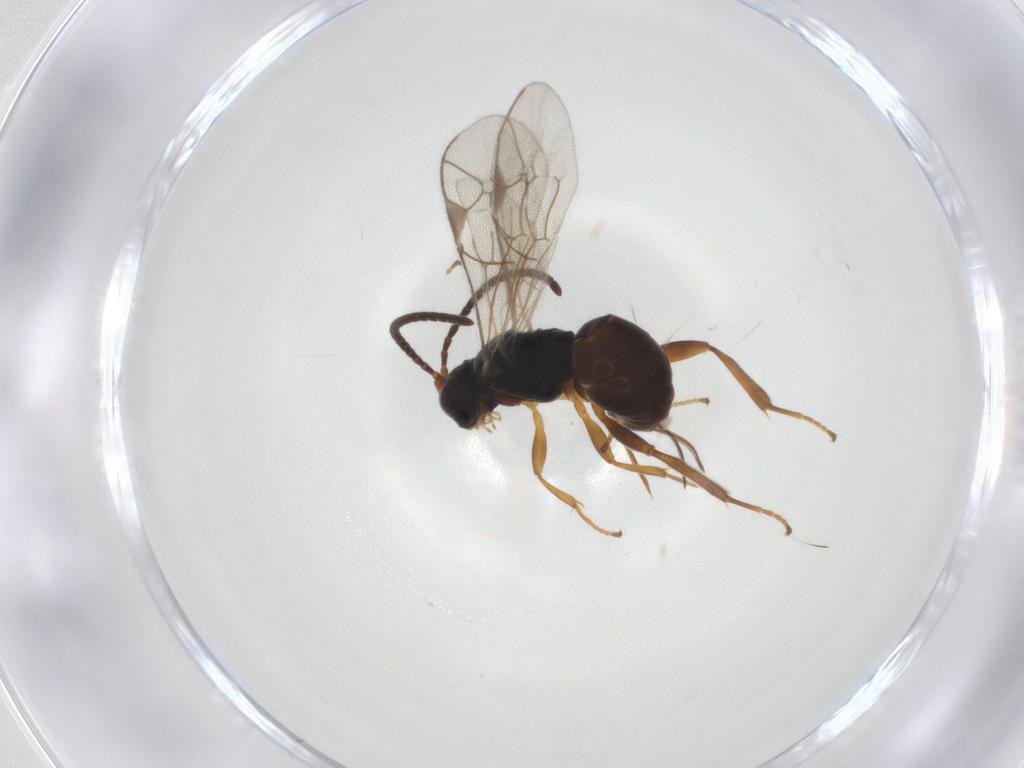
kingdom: Animalia
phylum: Arthropoda
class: Insecta
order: Hymenoptera
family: Ichneumonidae
